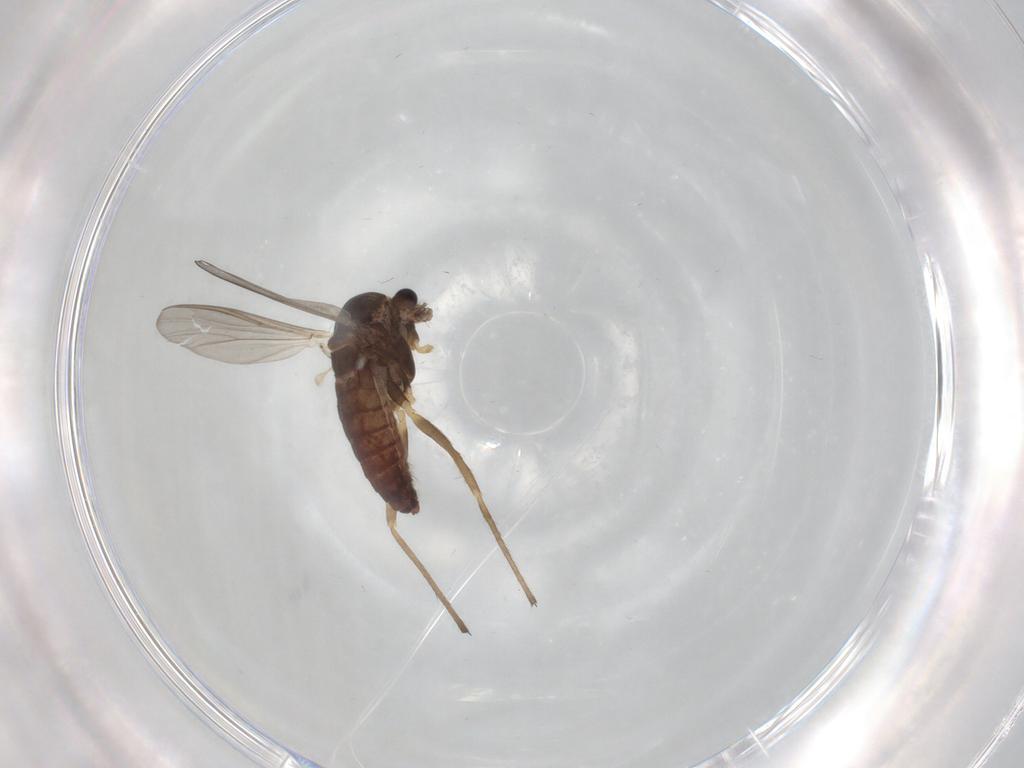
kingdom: Animalia
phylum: Arthropoda
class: Insecta
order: Diptera
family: Chironomidae
